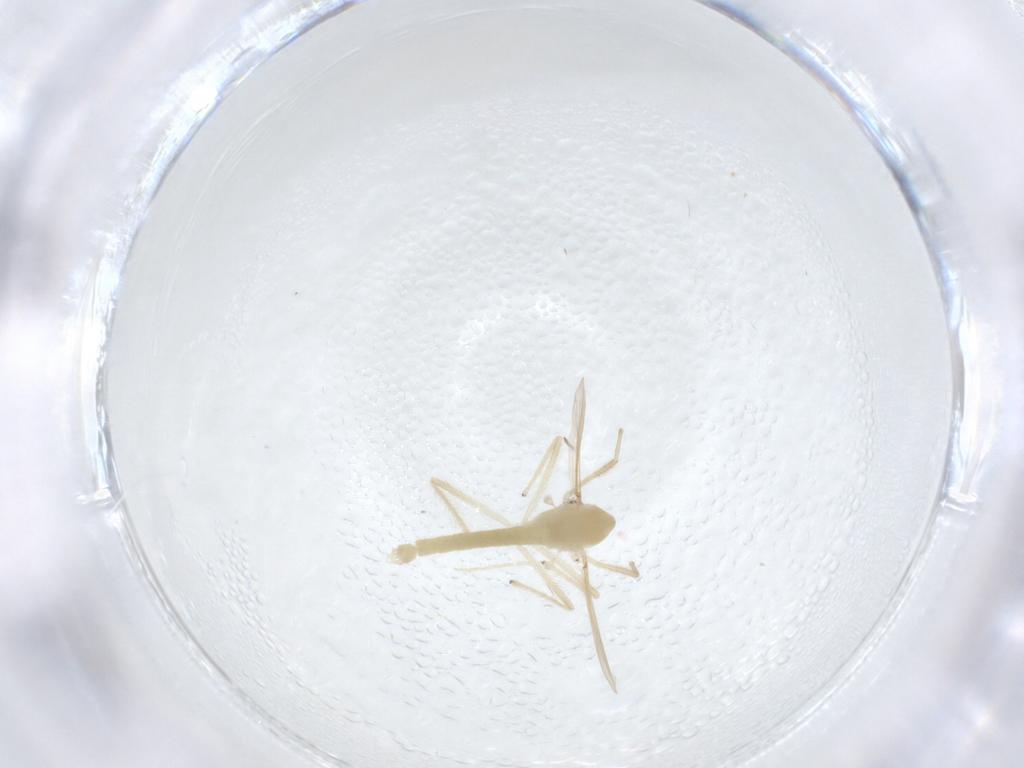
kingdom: Animalia
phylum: Arthropoda
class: Insecta
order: Diptera
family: Chironomidae
